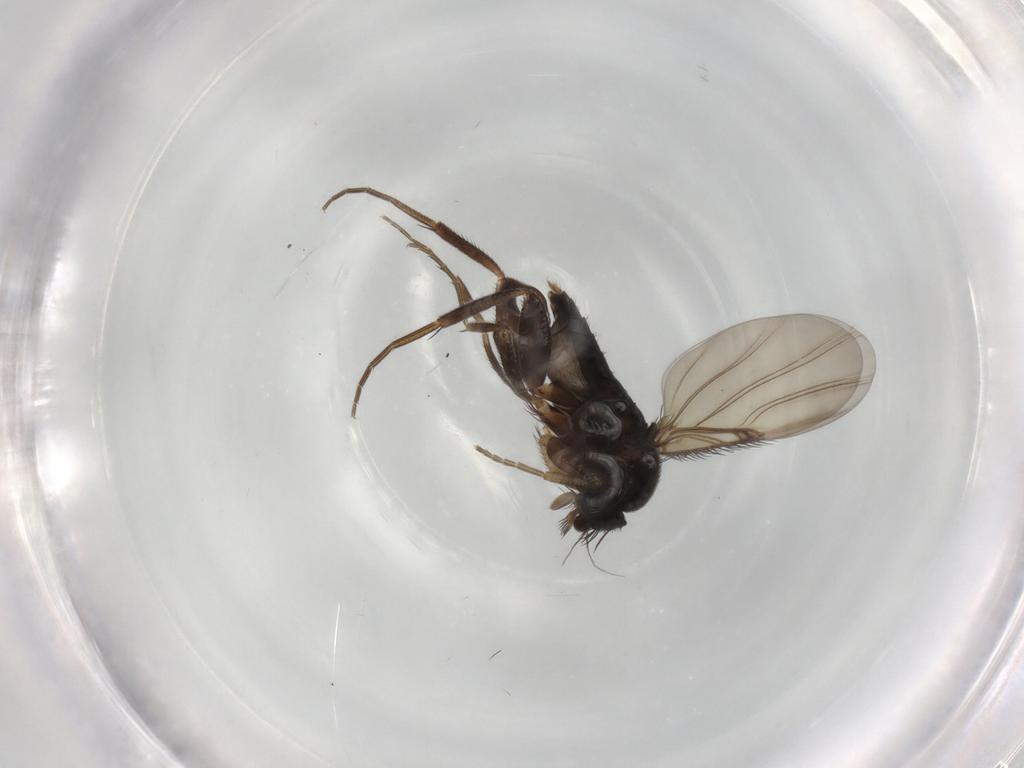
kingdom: Animalia
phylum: Arthropoda
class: Insecta
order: Diptera
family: Phoridae
